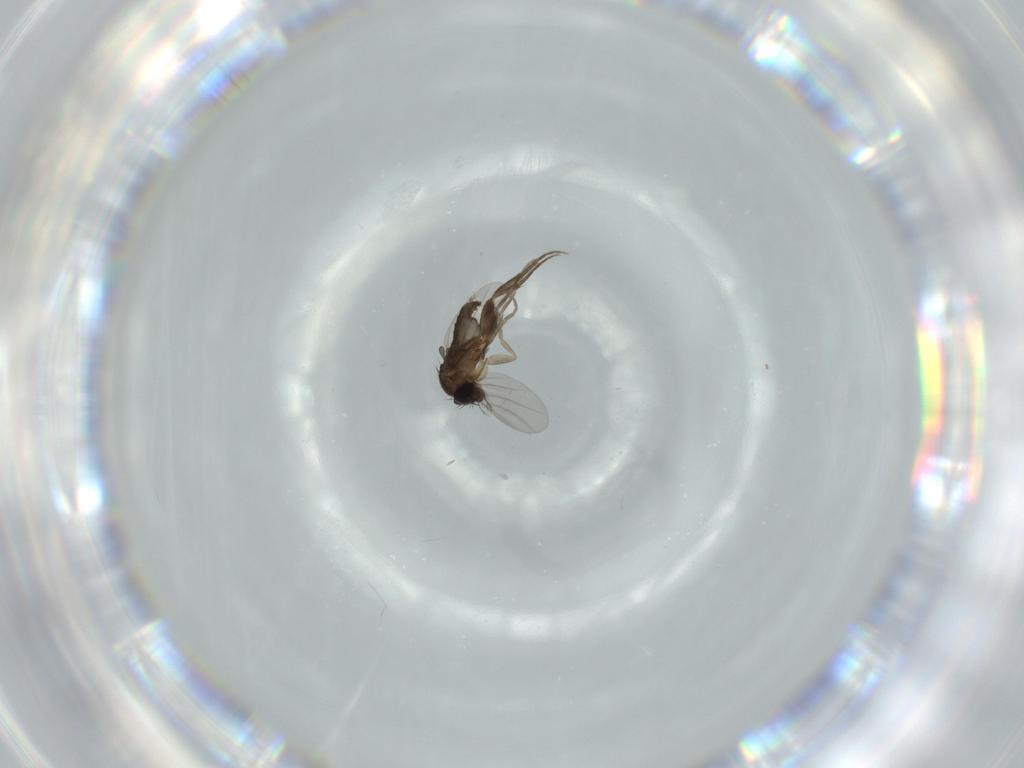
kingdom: Animalia
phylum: Arthropoda
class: Insecta
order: Diptera
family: Phoridae
